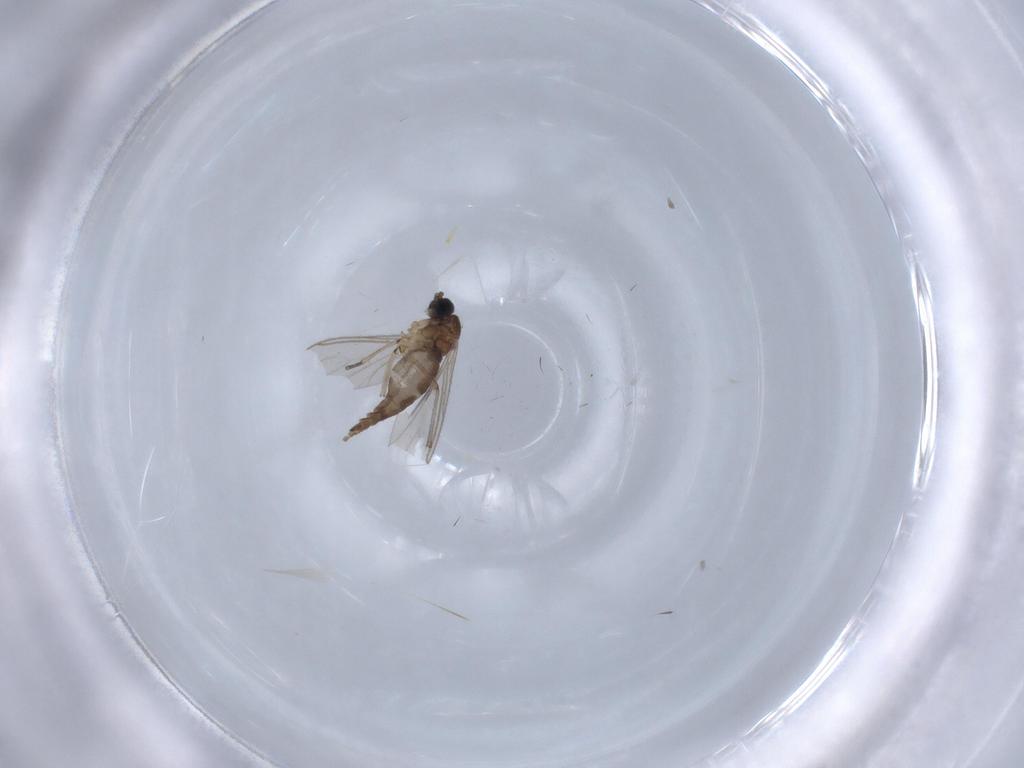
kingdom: Animalia
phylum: Arthropoda
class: Insecta
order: Diptera
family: Sciaridae
